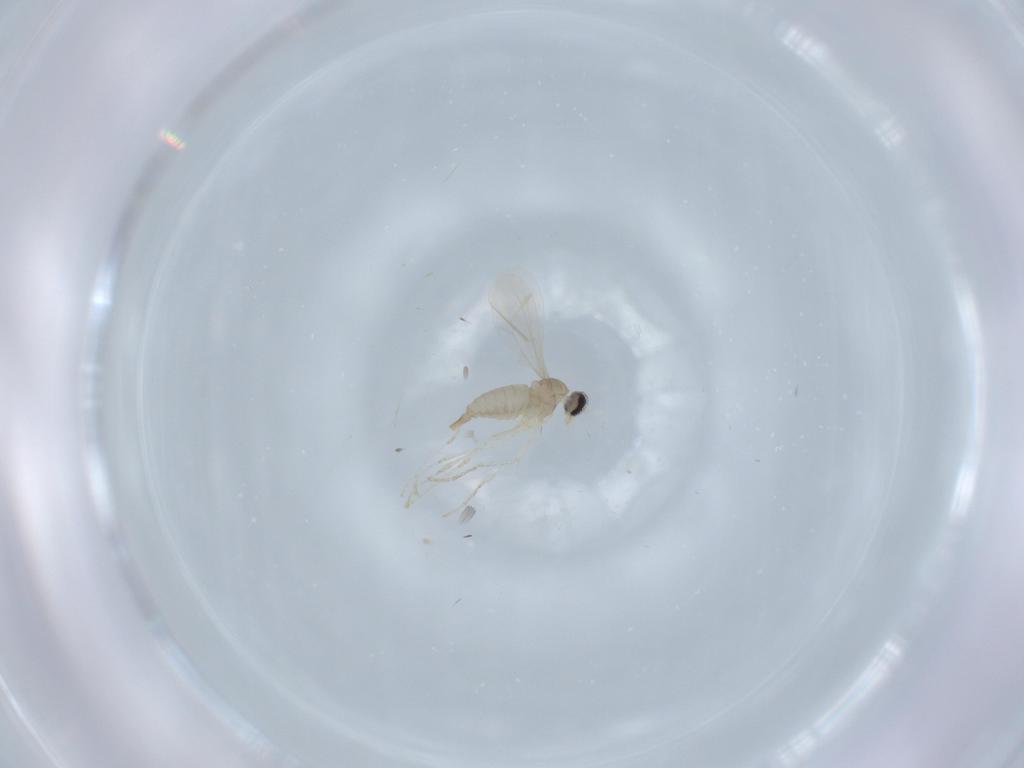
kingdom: Animalia
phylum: Arthropoda
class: Insecta
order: Diptera
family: Cecidomyiidae
